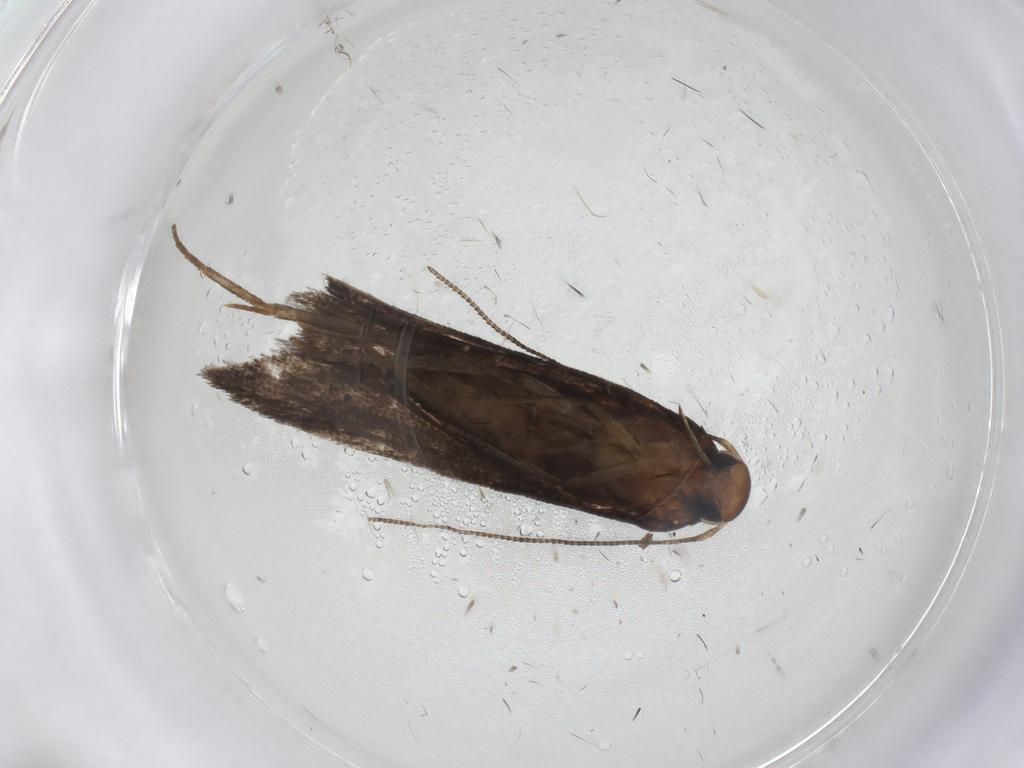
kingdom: Animalia
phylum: Arthropoda
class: Insecta
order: Lepidoptera
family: Noctuidae
